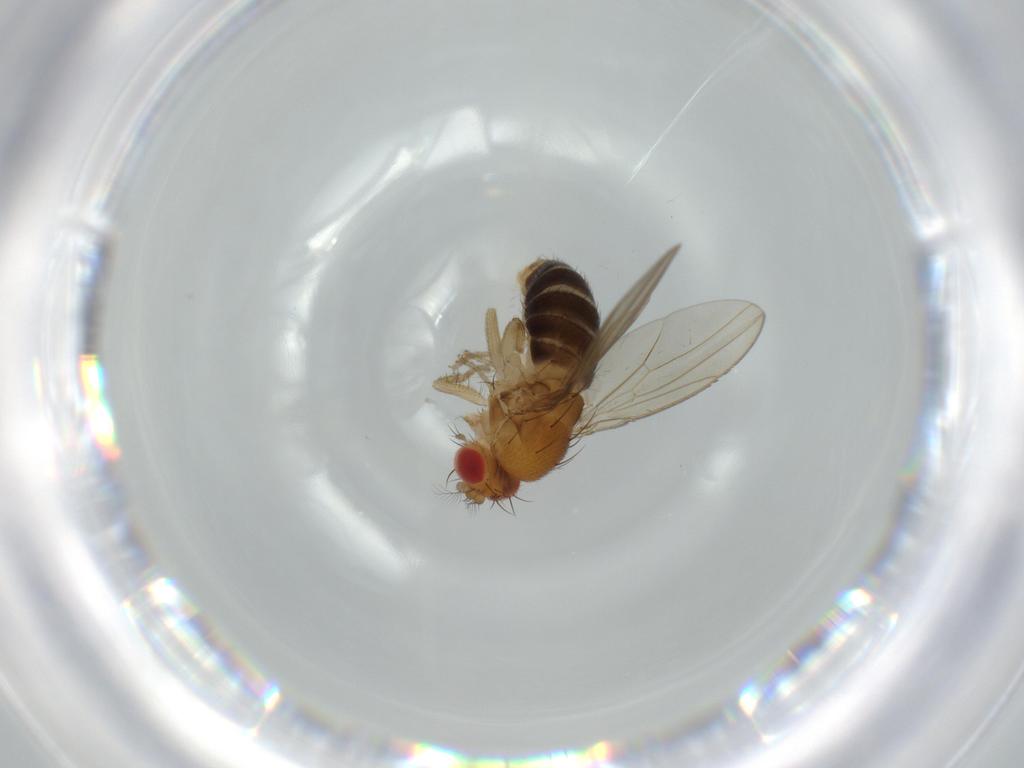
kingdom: Animalia
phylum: Arthropoda
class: Insecta
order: Diptera
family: Drosophilidae
